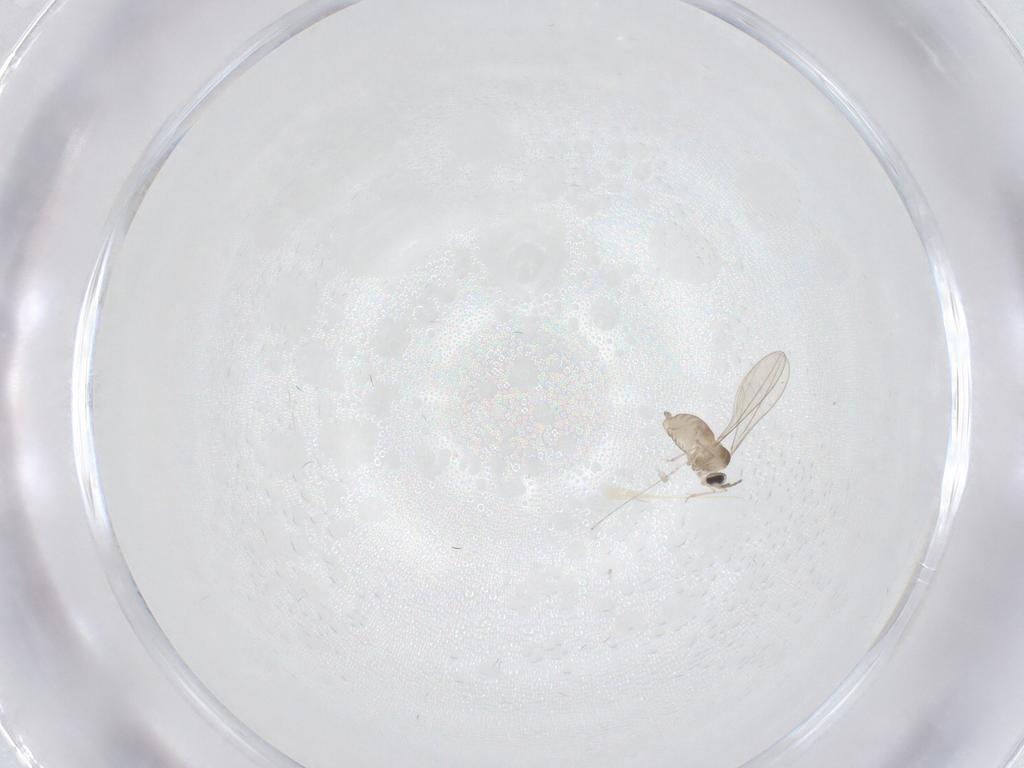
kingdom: Animalia
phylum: Arthropoda
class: Insecta
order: Diptera
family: Cecidomyiidae
